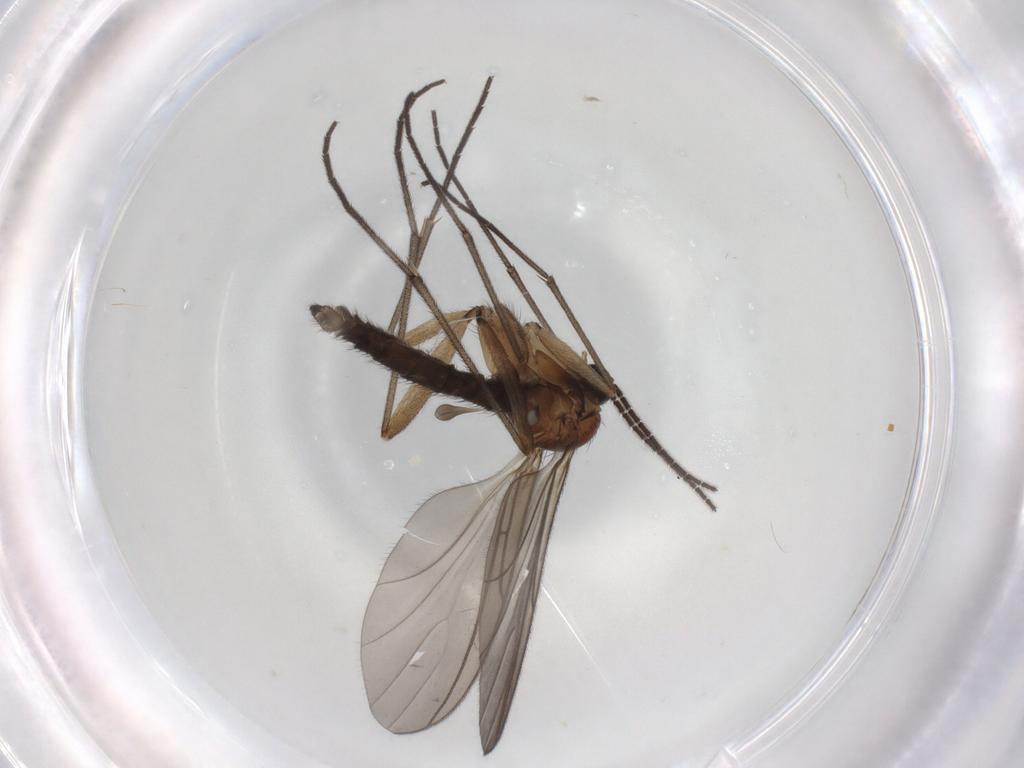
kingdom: Animalia
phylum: Arthropoda
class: Insecta
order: Diptera
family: Sciaridae
